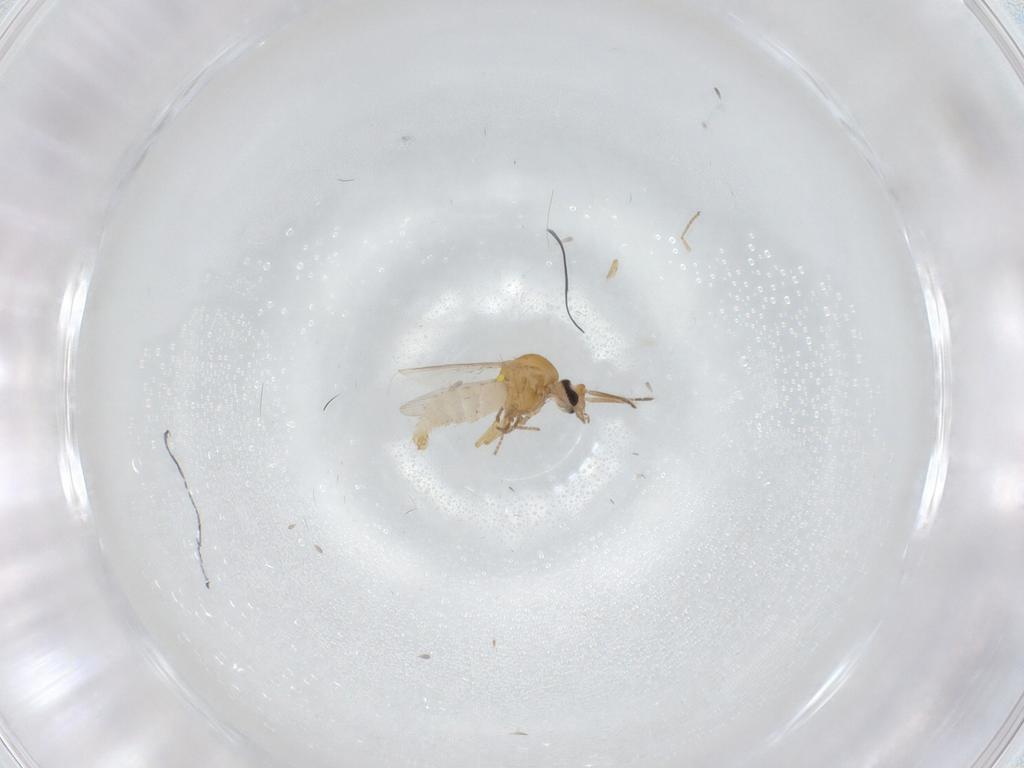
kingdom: Animalia
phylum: Arthropoda
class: Insecta
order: Diptera
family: Ceratopogonidae
